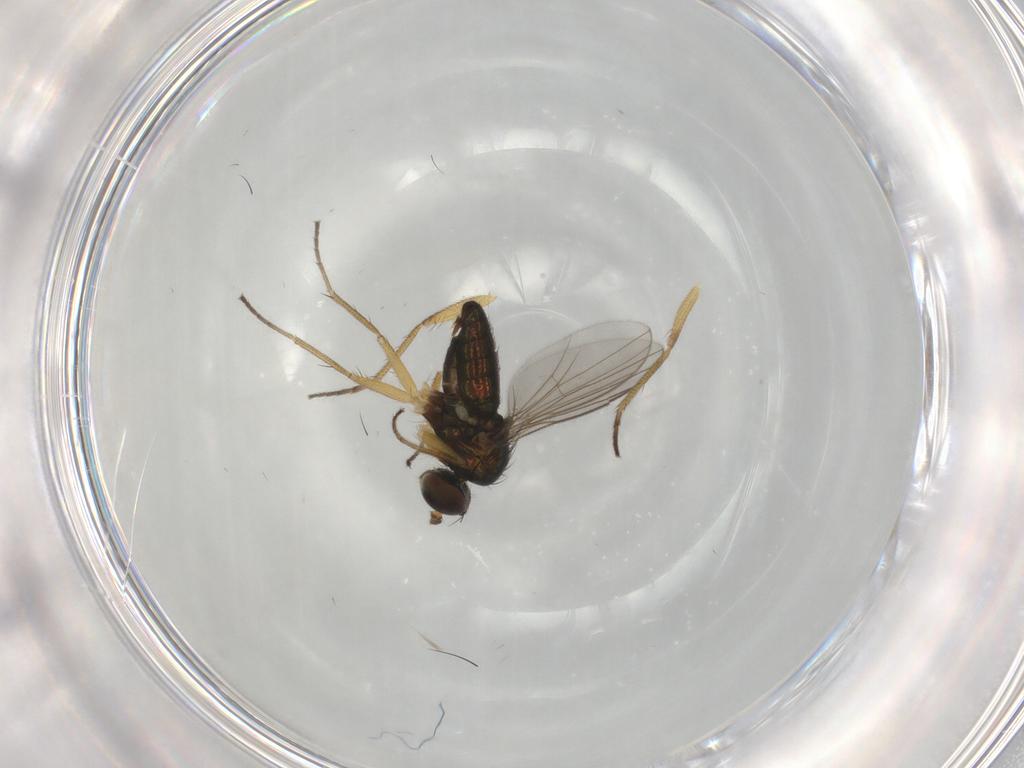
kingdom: Animalia
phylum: Arthropoda
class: Insecta
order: Diptera
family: Dolichopodidae
